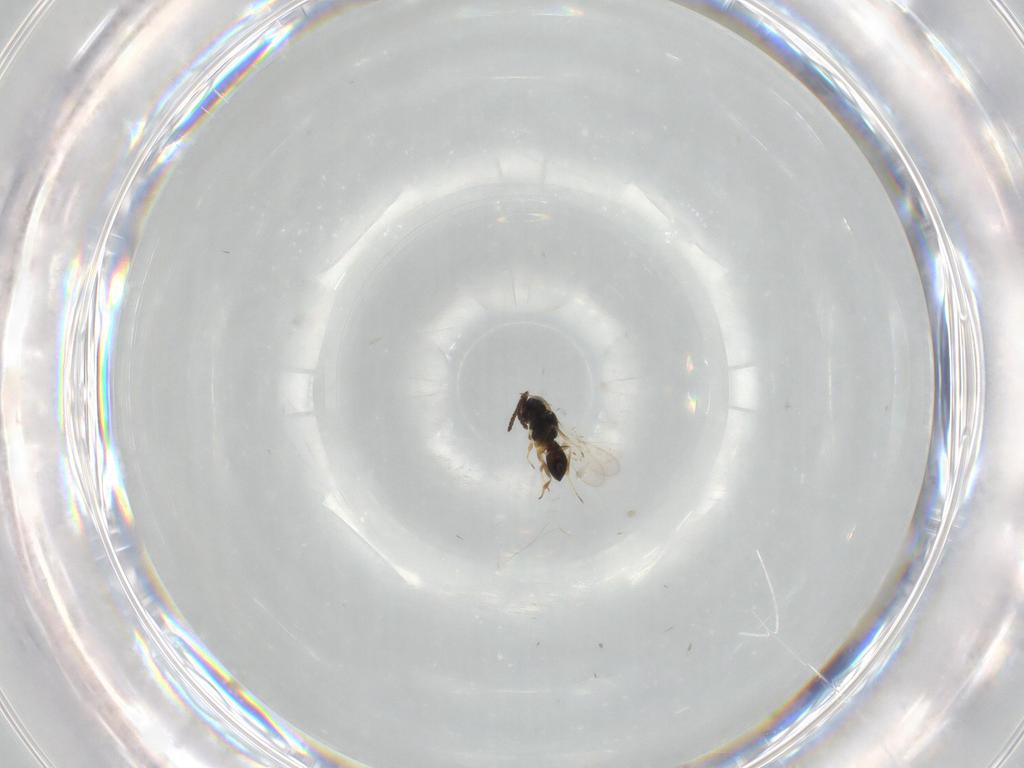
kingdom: Animalia
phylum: Arthropoda
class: Insecta
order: Hymenoptera
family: Scelionidae
